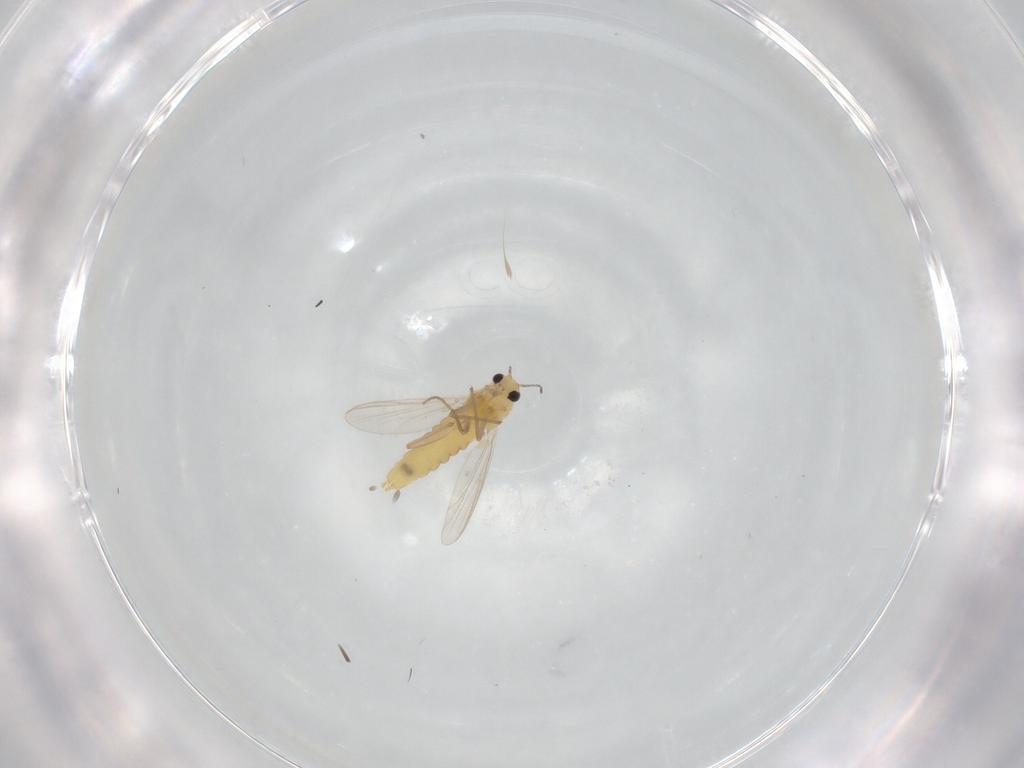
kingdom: Animalia
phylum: Arthropoda
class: Insecta
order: Diptera
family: Chironomidae
